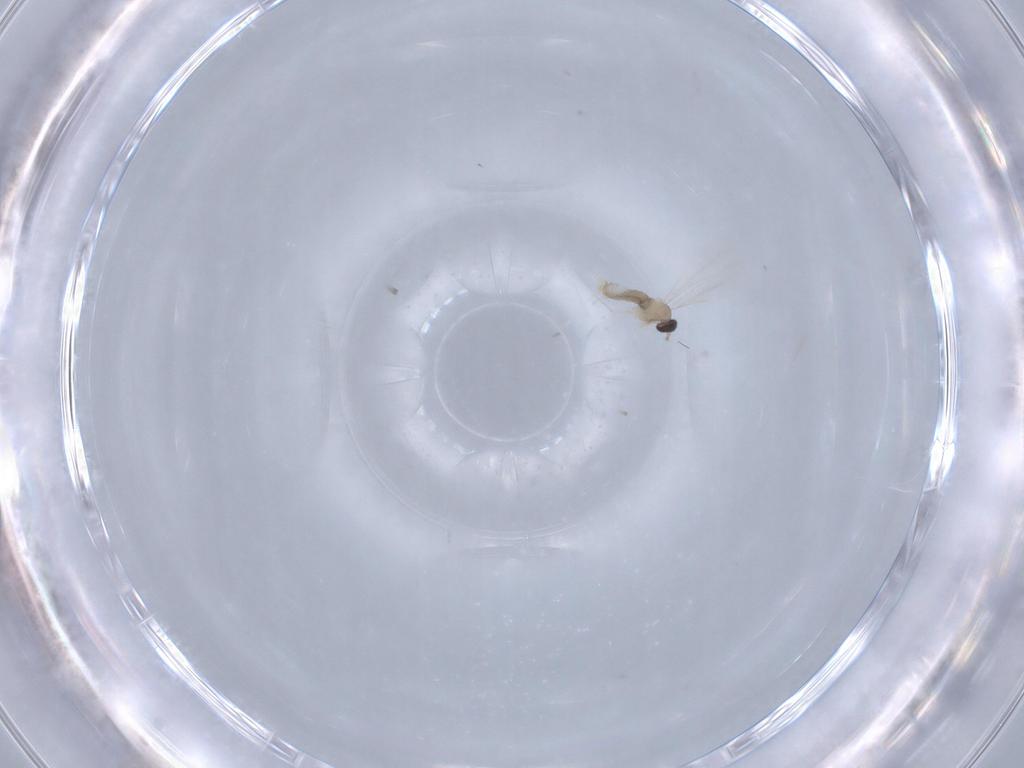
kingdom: Animalia
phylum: Arthropoda
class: Insecta
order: Diptera
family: Cecidomyiidae
